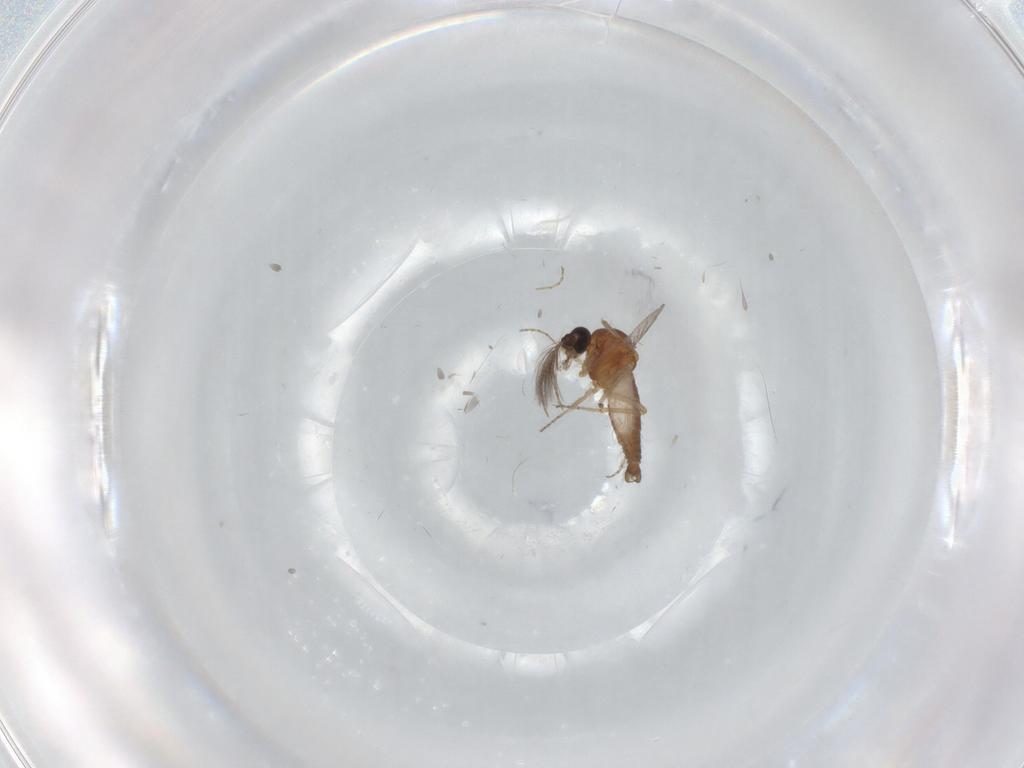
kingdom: Animalia
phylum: Arthropoda
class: Insecta
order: Diptera
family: Ceratopogonidae
